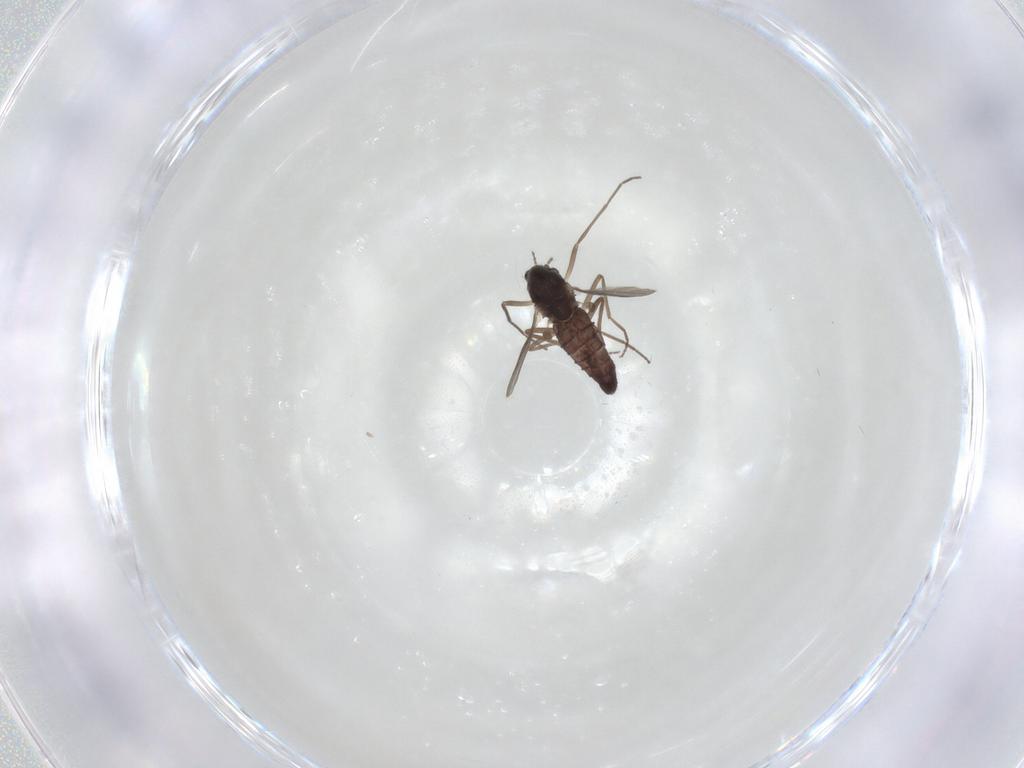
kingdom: Animalia
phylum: Arthropoda
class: Insecta
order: Diptera
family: Chironomidae
